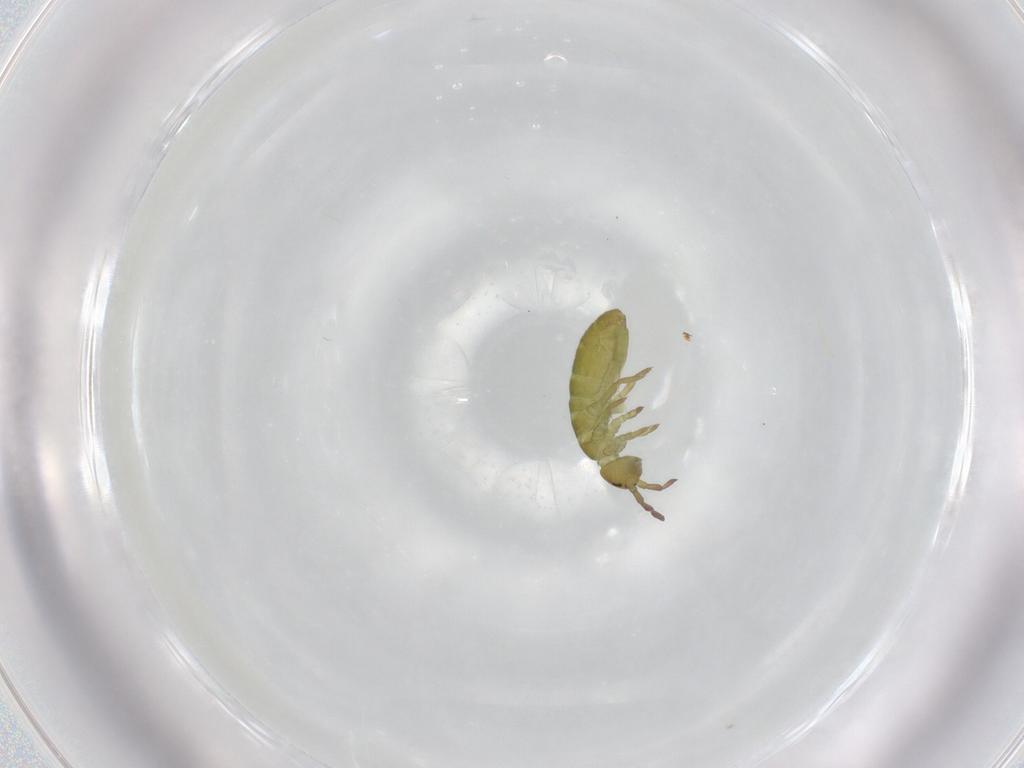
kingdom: Animalia
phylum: Arthropoda
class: Collembola
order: Entomobryomorpha
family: Isotomidae
